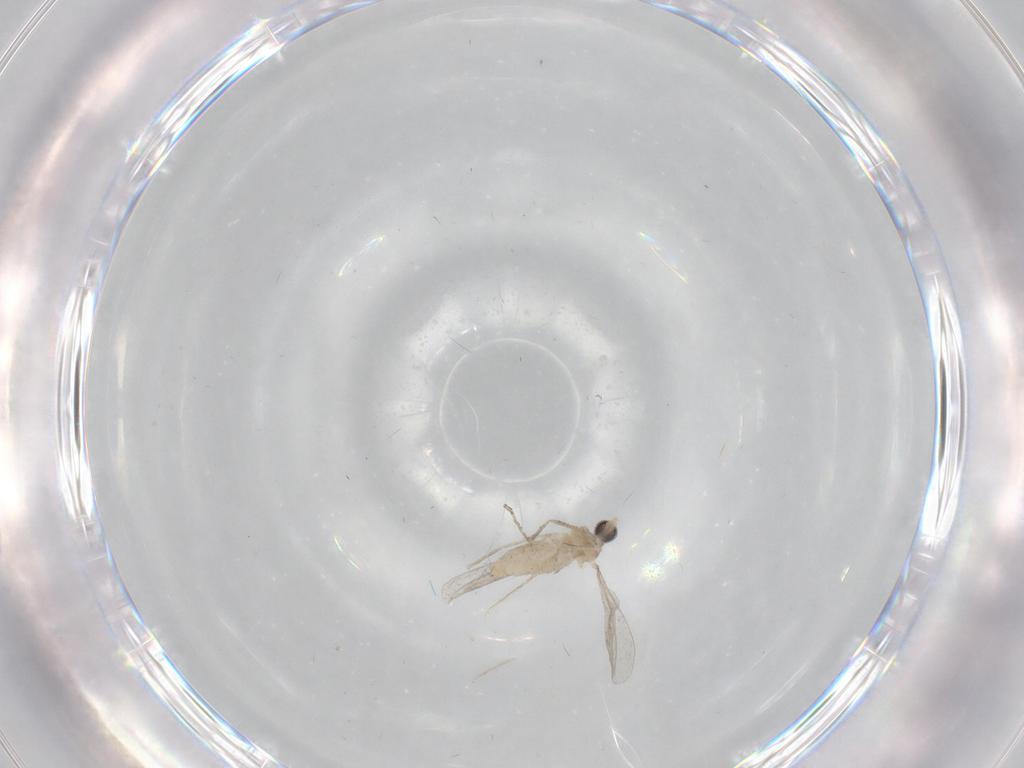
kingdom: Animalia
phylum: Arthropoda
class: Insecta
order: Diptera
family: Cecidomyiidae
